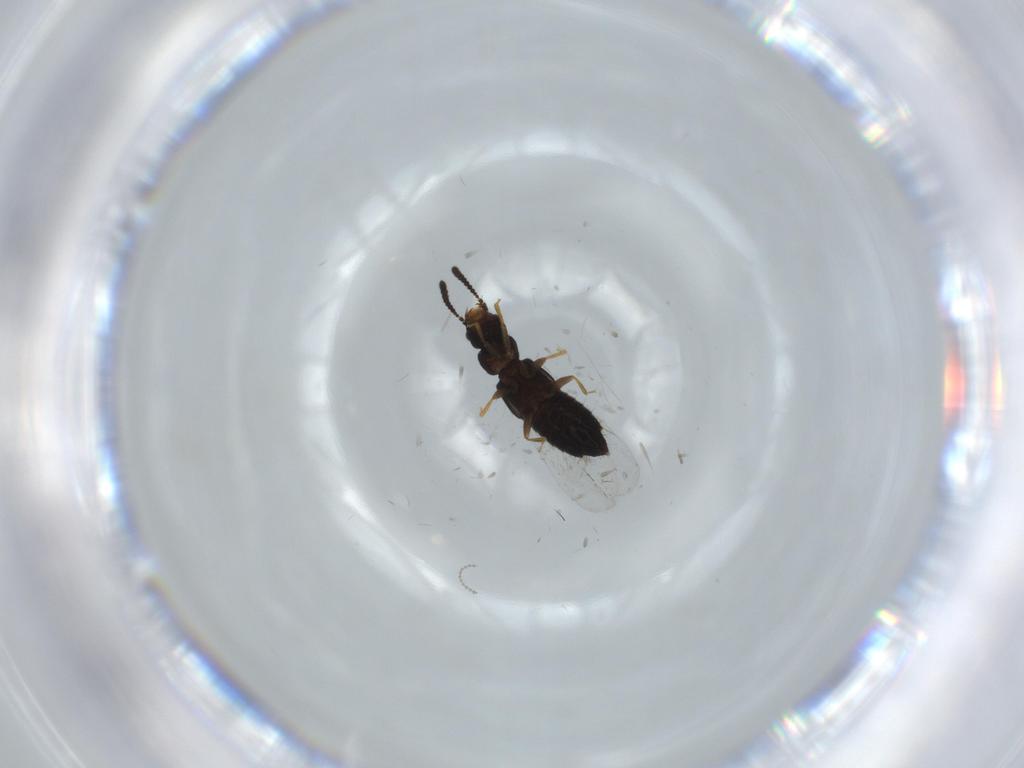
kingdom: Animalia
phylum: Arthropoda
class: Insecta
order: Coleoptera
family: Staphylinidae
